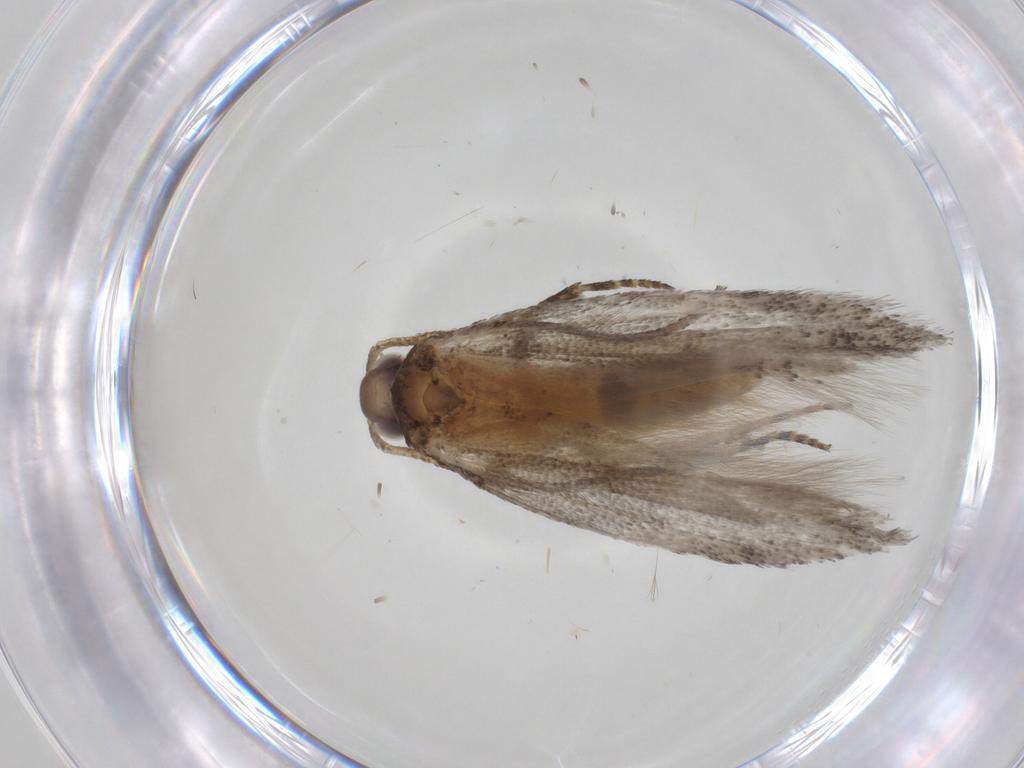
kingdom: Animalia
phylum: Arthropoda
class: Insecta
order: Lepidoptera
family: Gelechiidae
